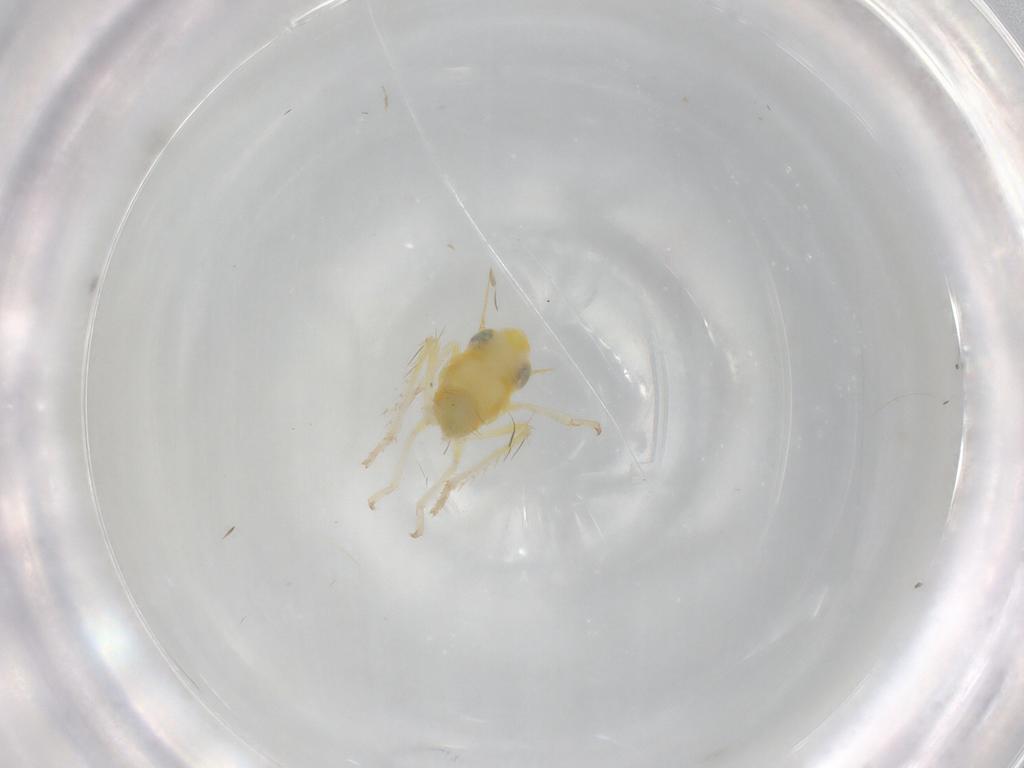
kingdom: Animalia
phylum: Arthropoda
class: Insecta
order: Hemiptera
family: Cicadellidae
